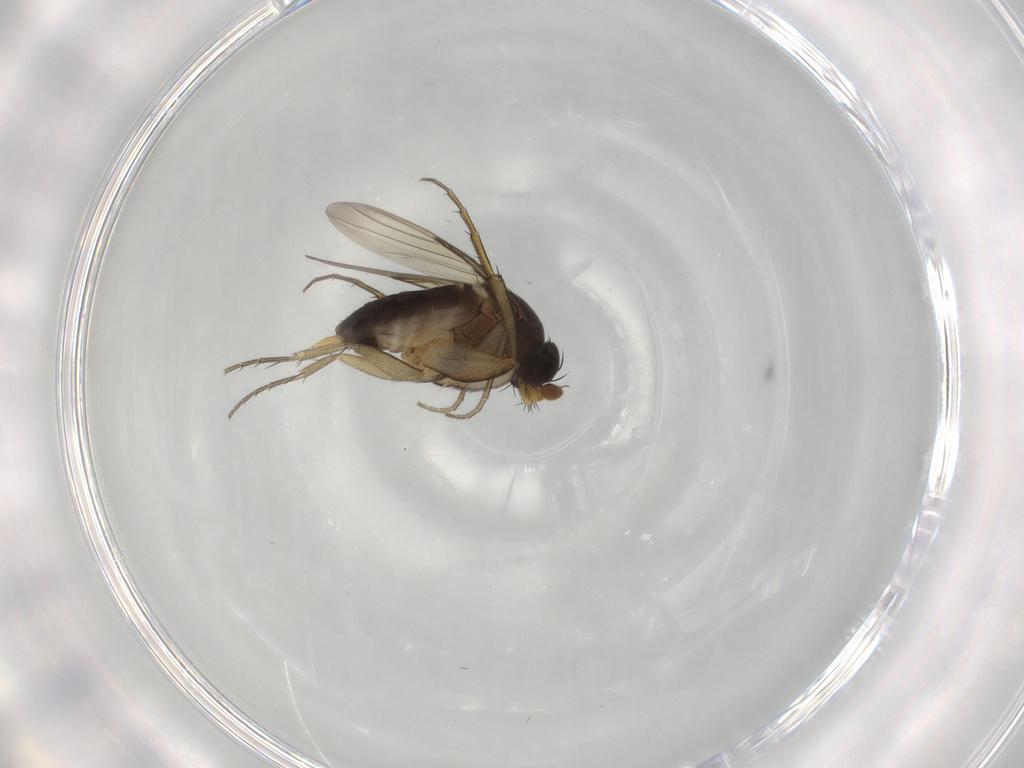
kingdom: Animalia
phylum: Arthropoda
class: Insecta
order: Diptera
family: Phoridae
